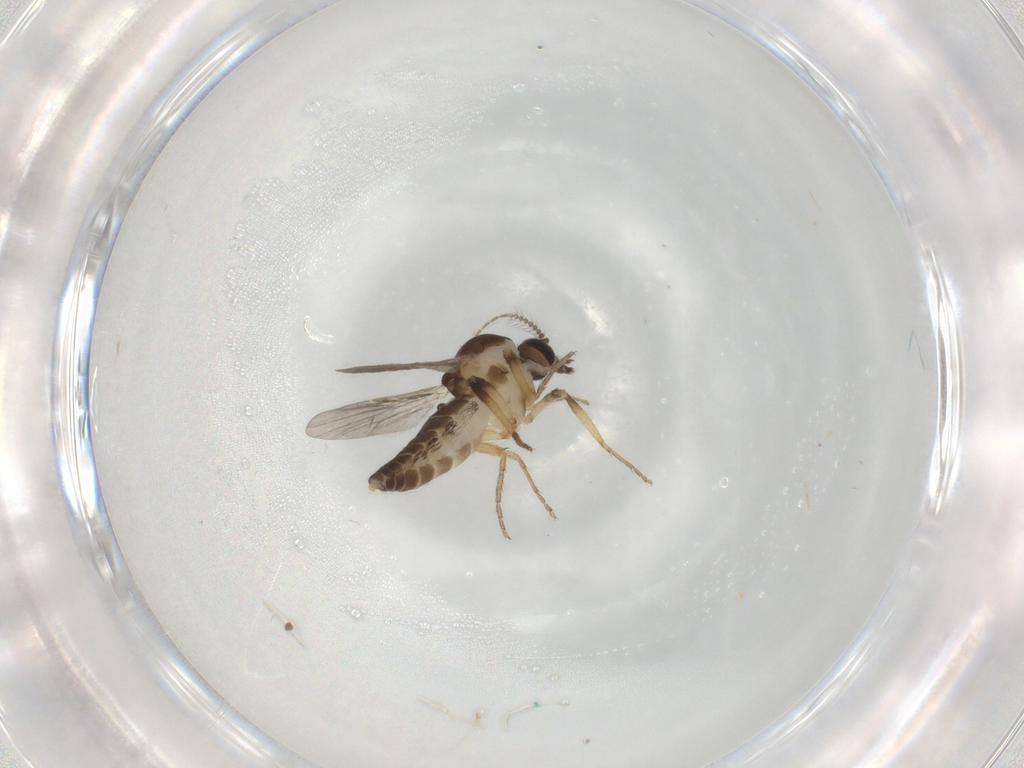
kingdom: Animalia
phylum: Arthropoda
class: Insecta
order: Diptera
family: Dolichopodidae
